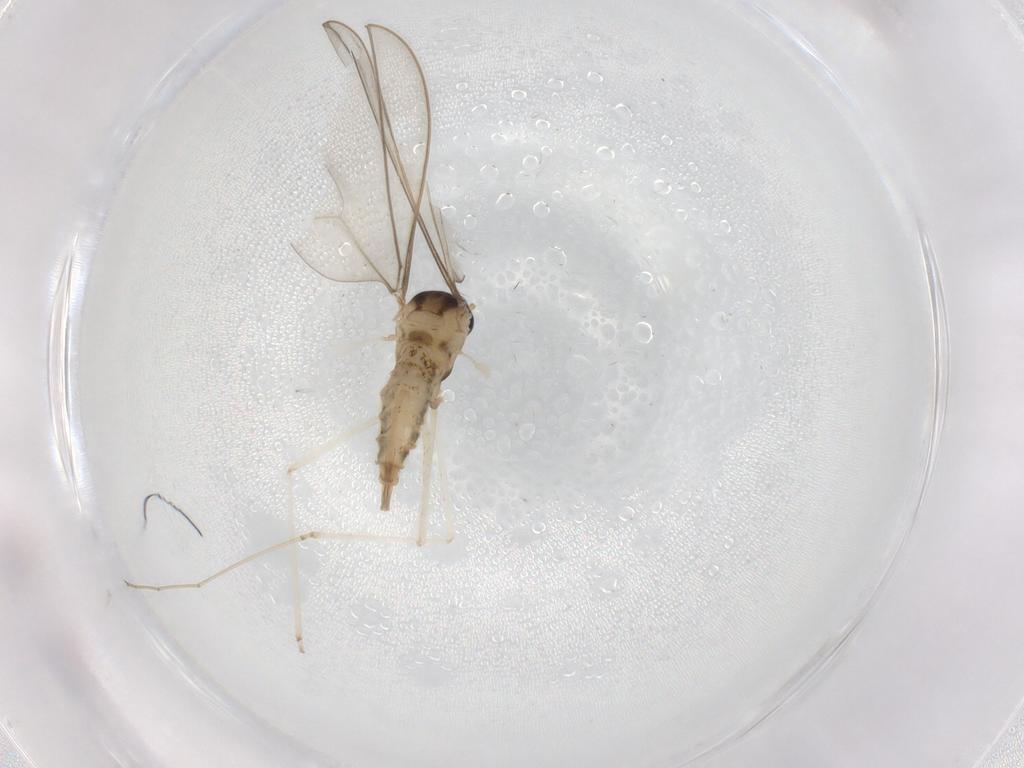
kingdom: Animalia
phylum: Arthropoda
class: Insecta
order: Diptera
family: Cecidomyiidae
